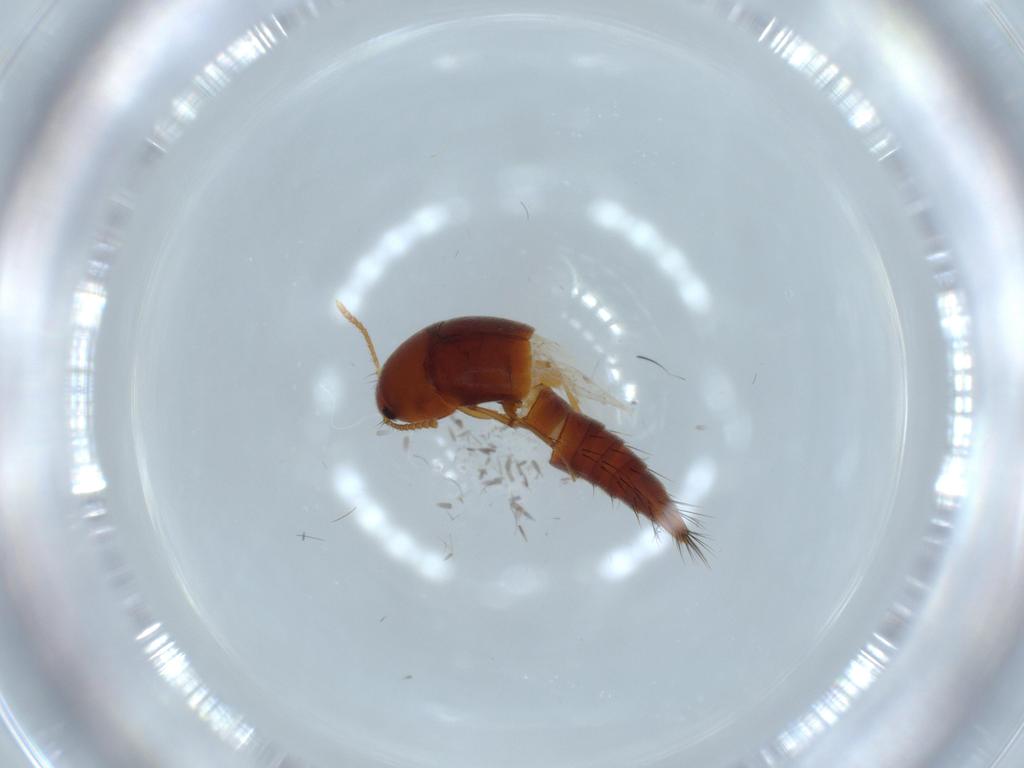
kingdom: Animalia
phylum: Arthropoda
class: Insecta
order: Coleoptera
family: Staphylinidae
